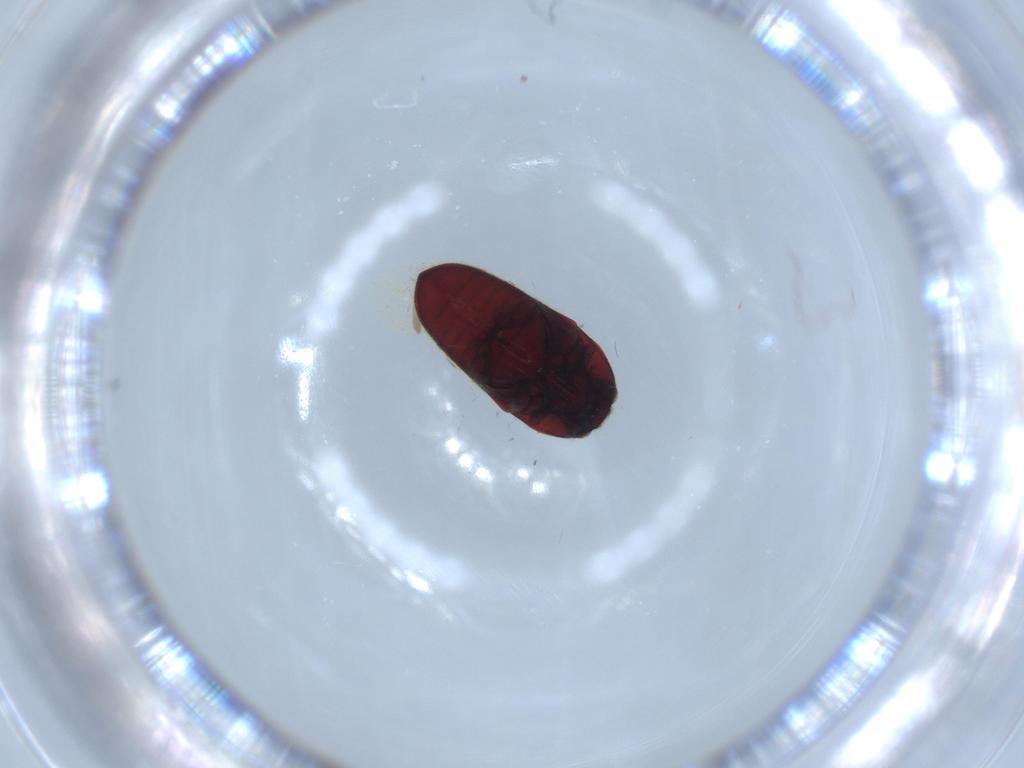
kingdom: Animalia
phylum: Arthropoda
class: Insecta
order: Coleoptera
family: Throscidae
